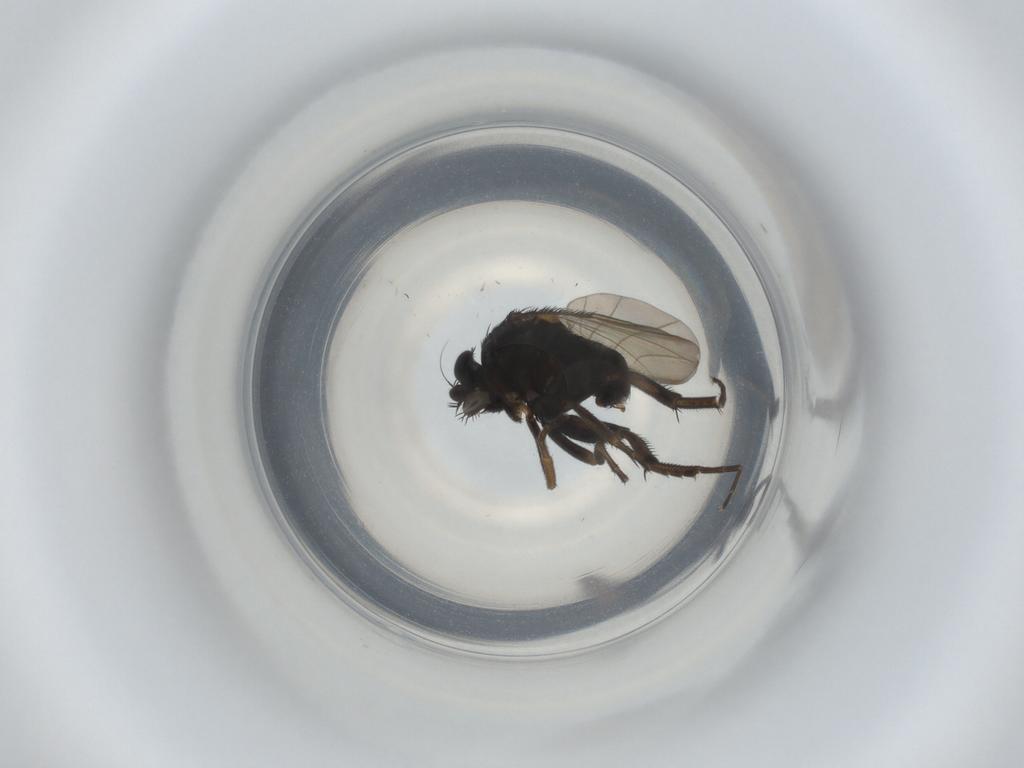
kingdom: Animalia
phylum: Arthropoda
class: Insecta
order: Diptera
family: Phoridae
